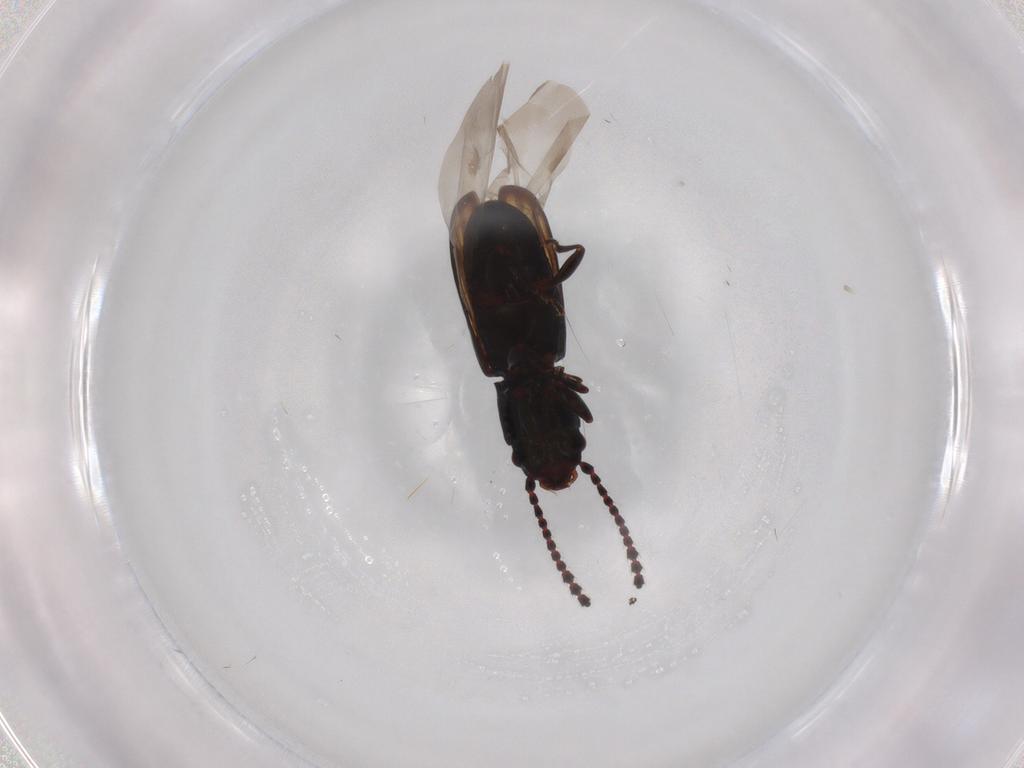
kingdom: Animalia
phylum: Arthropoda
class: Insecta
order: Coleoptera
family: Laemophloeidae
